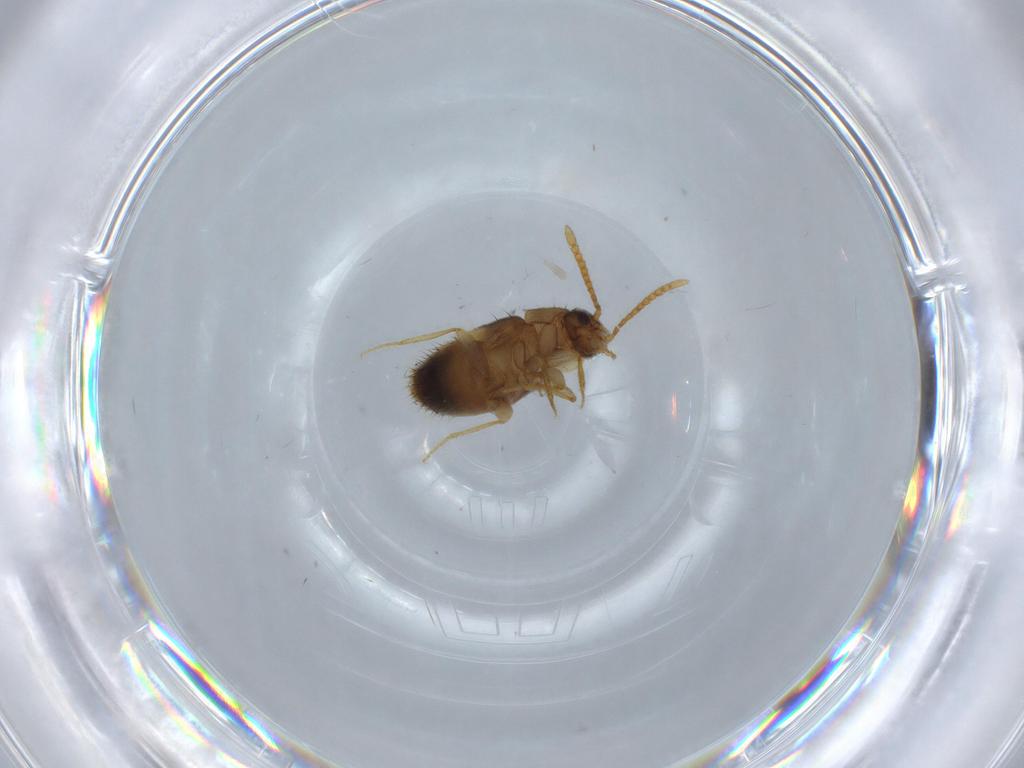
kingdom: Animalia
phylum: Arthropoda
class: Insecta
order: Coleoptera
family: Staphylinidae
